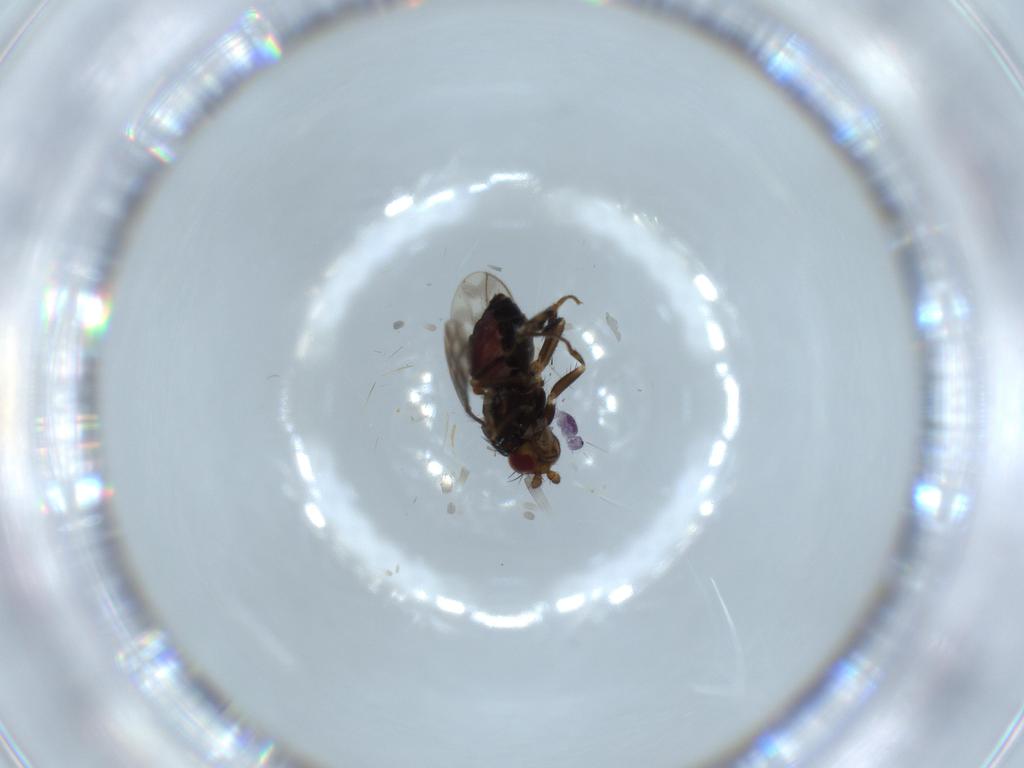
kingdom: Animalia
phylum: Arthropoda
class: Insecta
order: Diptera
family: Sphaeroceridae
